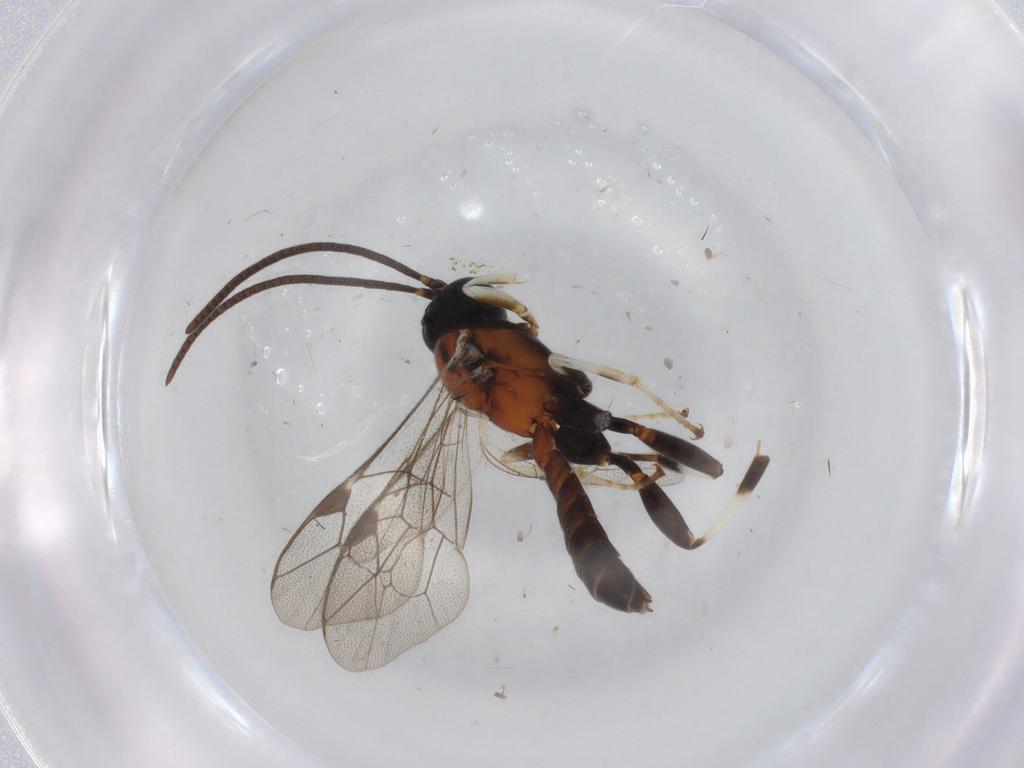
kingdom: Animalia
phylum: Arthropoda
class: Insecta
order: Hymenoptera
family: Ichneumonidae
